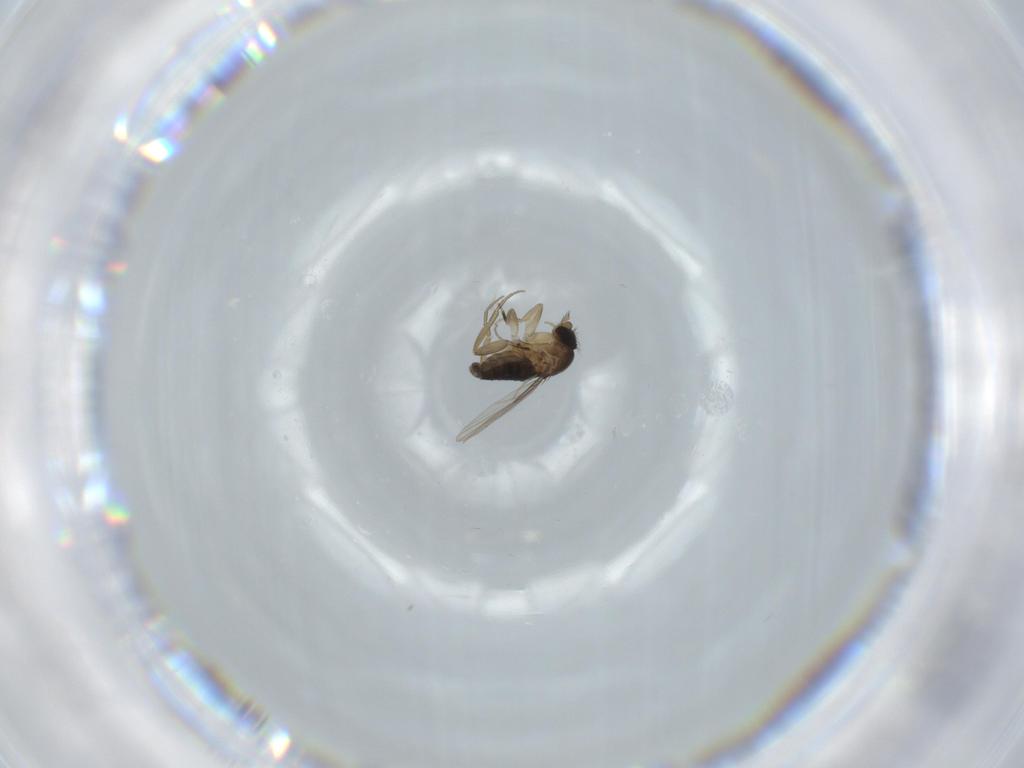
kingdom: Animalia
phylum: Arthropoda
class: Insecta
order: Diptera
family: Phoridae
